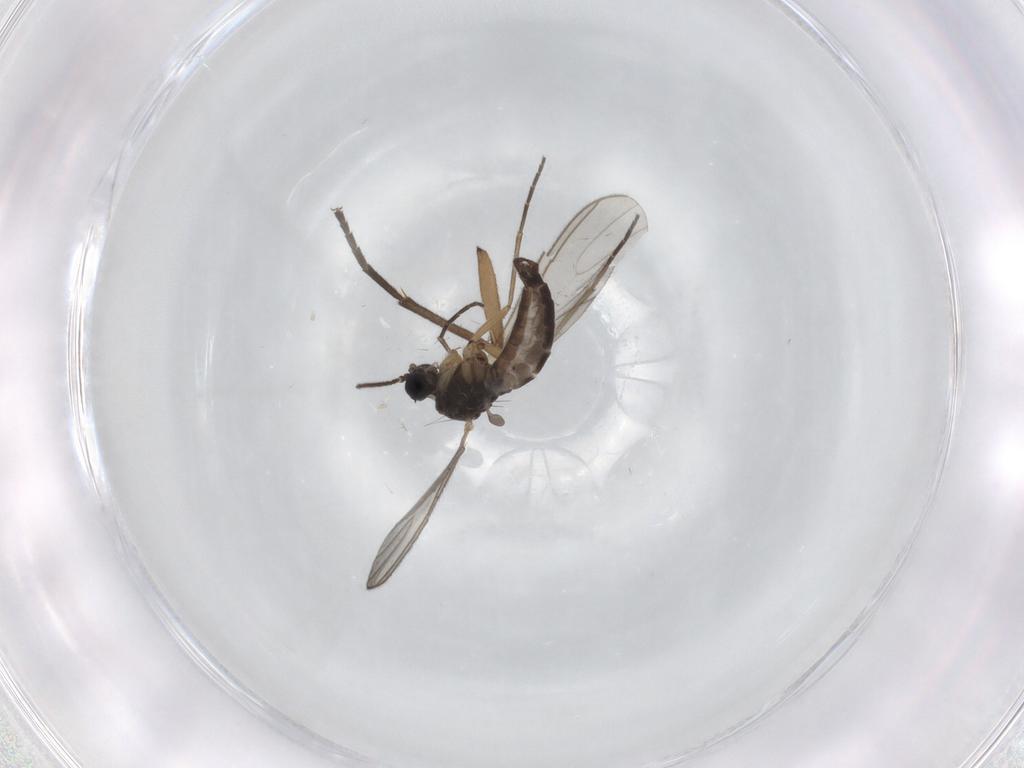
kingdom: Animalia
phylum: Arthropoda
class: Insecta
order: Diptera
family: Sciaridae
